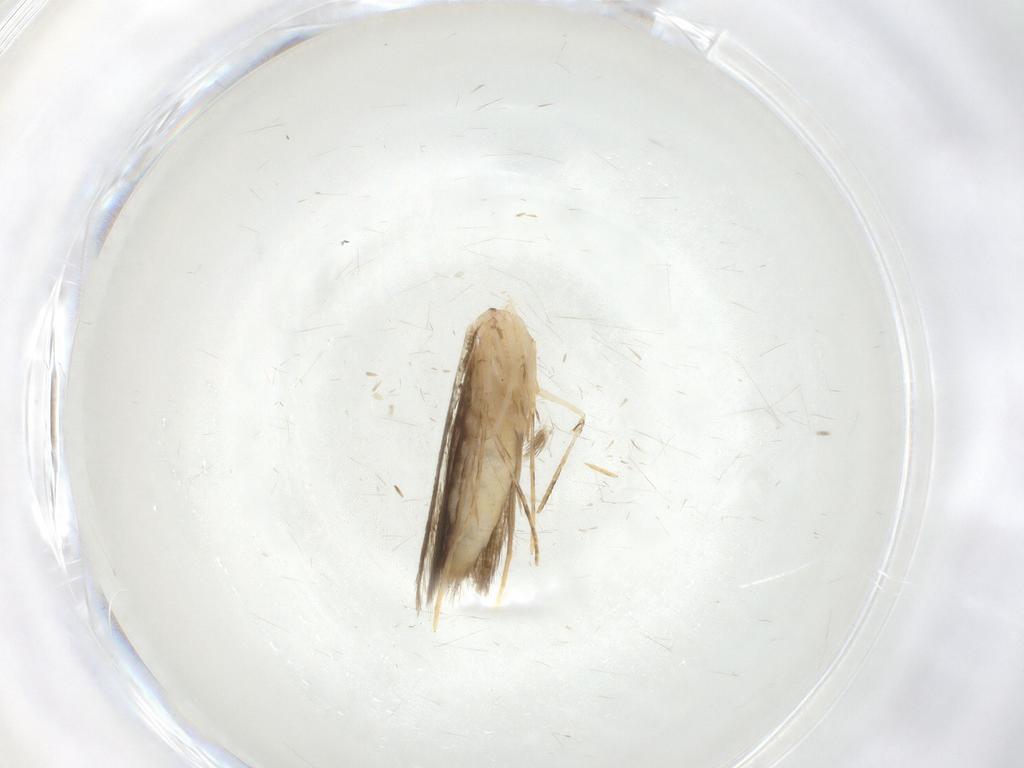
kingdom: Animalia
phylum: Arthropoda
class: Insecta
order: Lepidoptera
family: Psychidae
